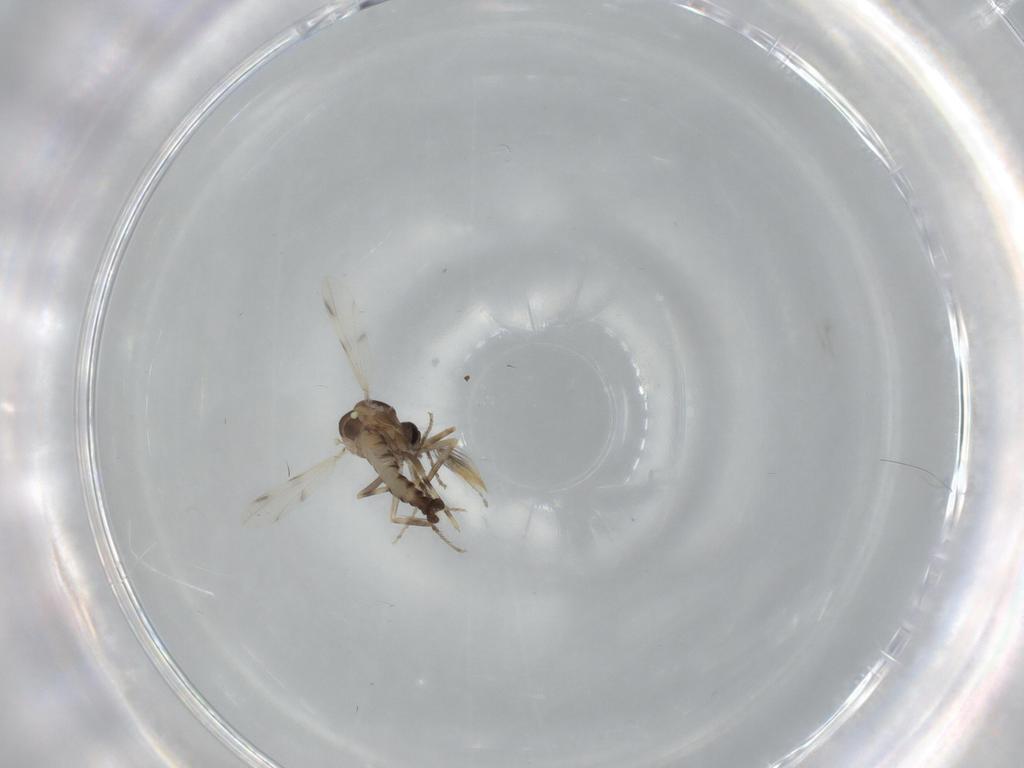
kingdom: Animalia
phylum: Arthropoda
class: Insecta
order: Diptera
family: Ceratopogonidae
